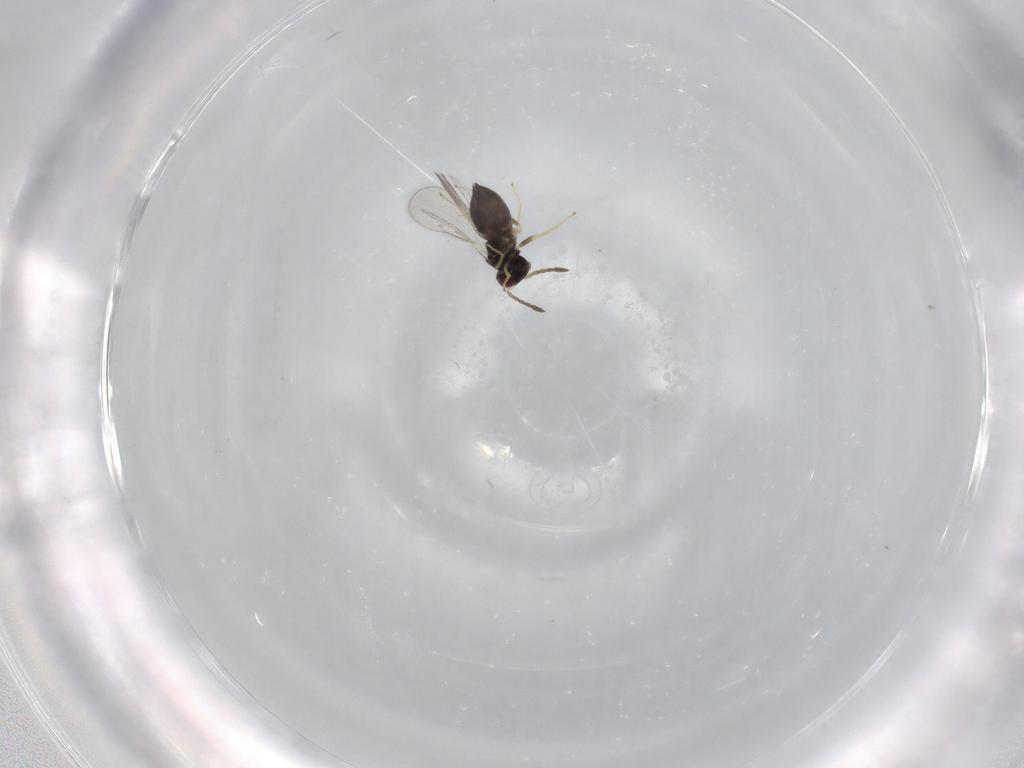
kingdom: Animalia
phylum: Arthropoda
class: Insecta
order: Hymenoptera
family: Eulophidae
